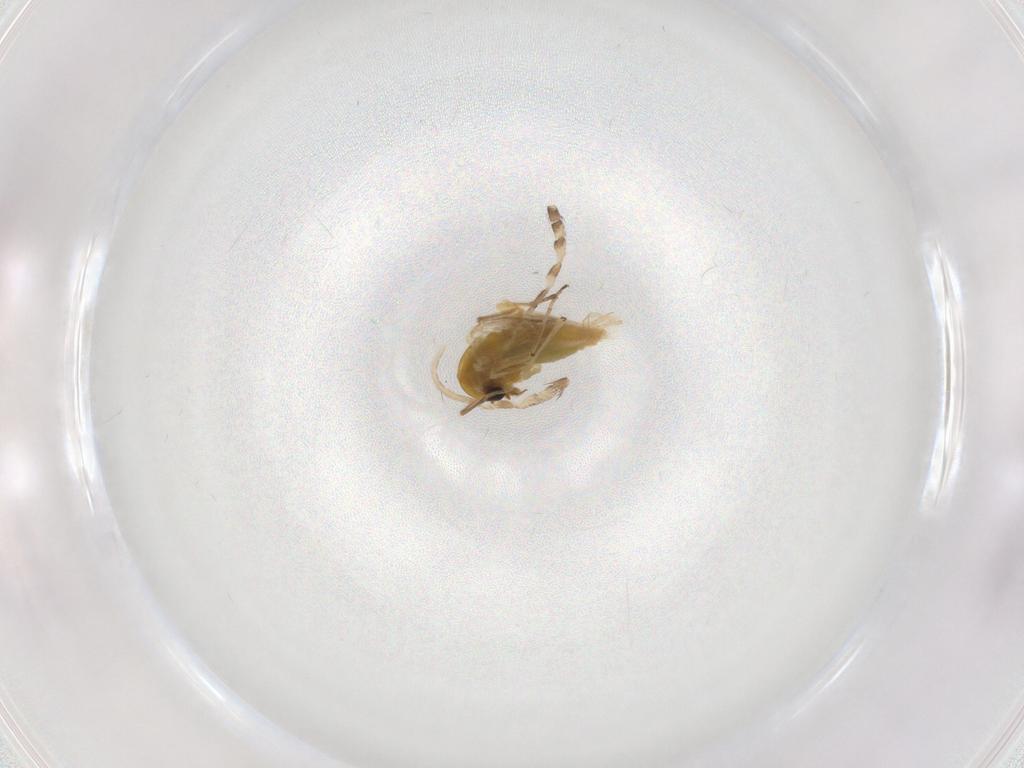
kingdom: Animalia
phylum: Arthropoda
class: Insecta
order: Diptera
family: Chironomidae
